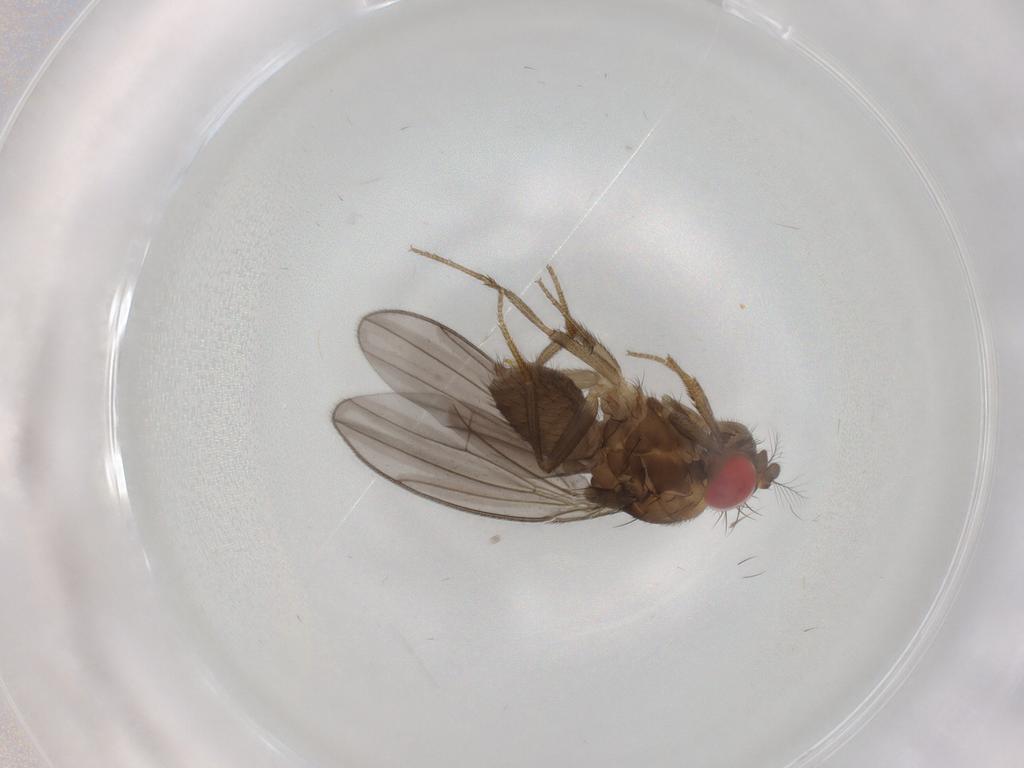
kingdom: Animalia
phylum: Arthropoda
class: Insecta
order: Diptera
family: Drosophilidae
